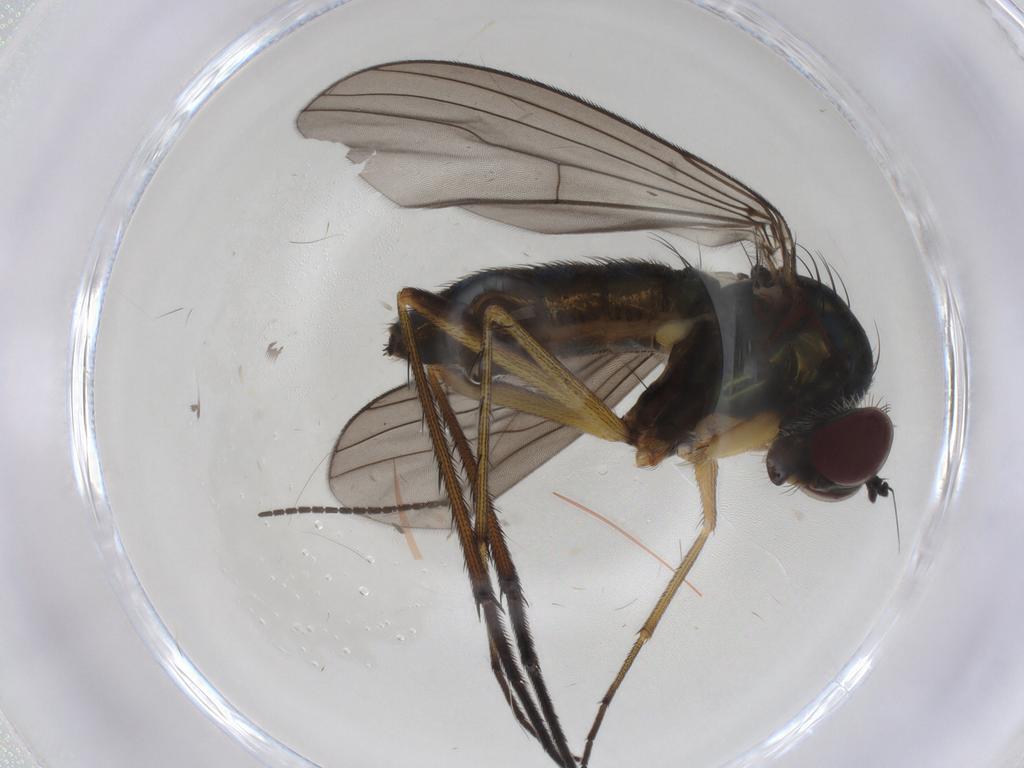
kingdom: Animalia
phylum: Arthropoda
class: Insecta
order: Diptera
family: Dolichopodidae
